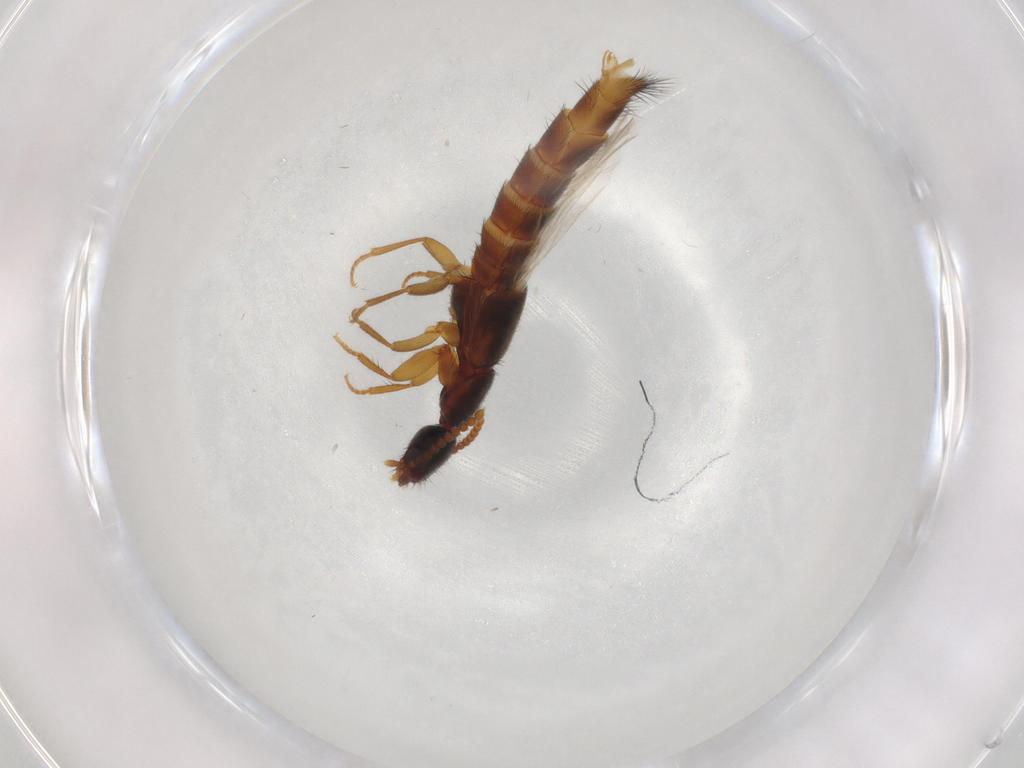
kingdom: Animalia
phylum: Arthropoda
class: Insecta
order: Coleoptera
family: Staphylinidae
